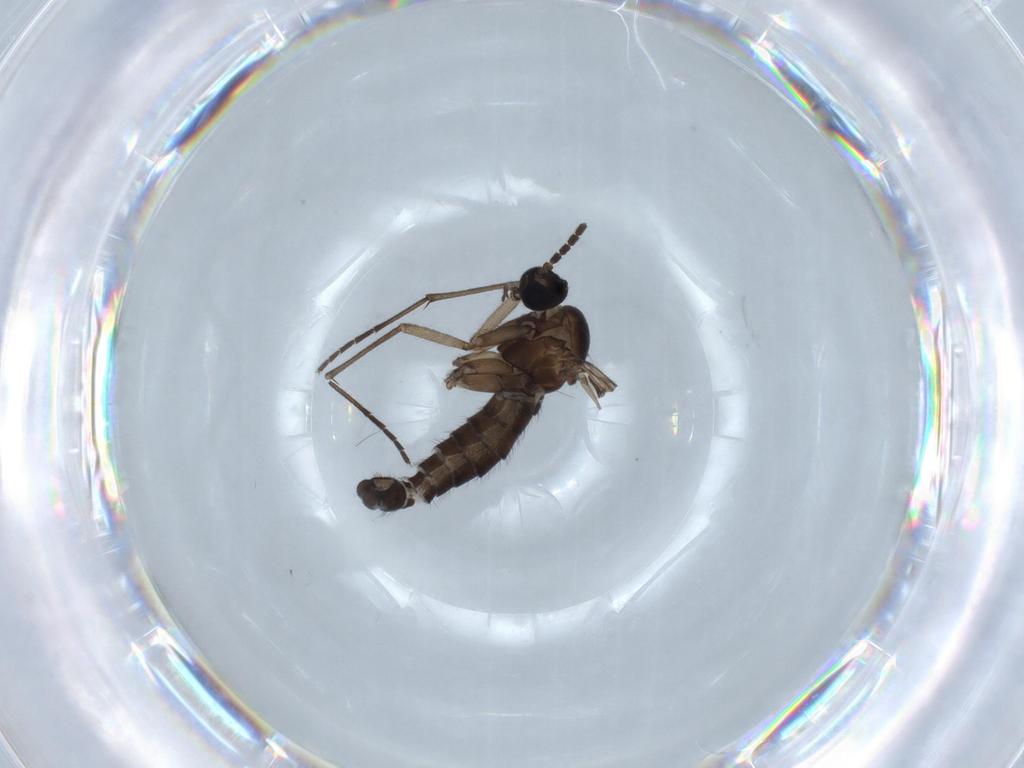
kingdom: Animalia
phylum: Arthropoda
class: Insecta
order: Diptera
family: Sciaridae
